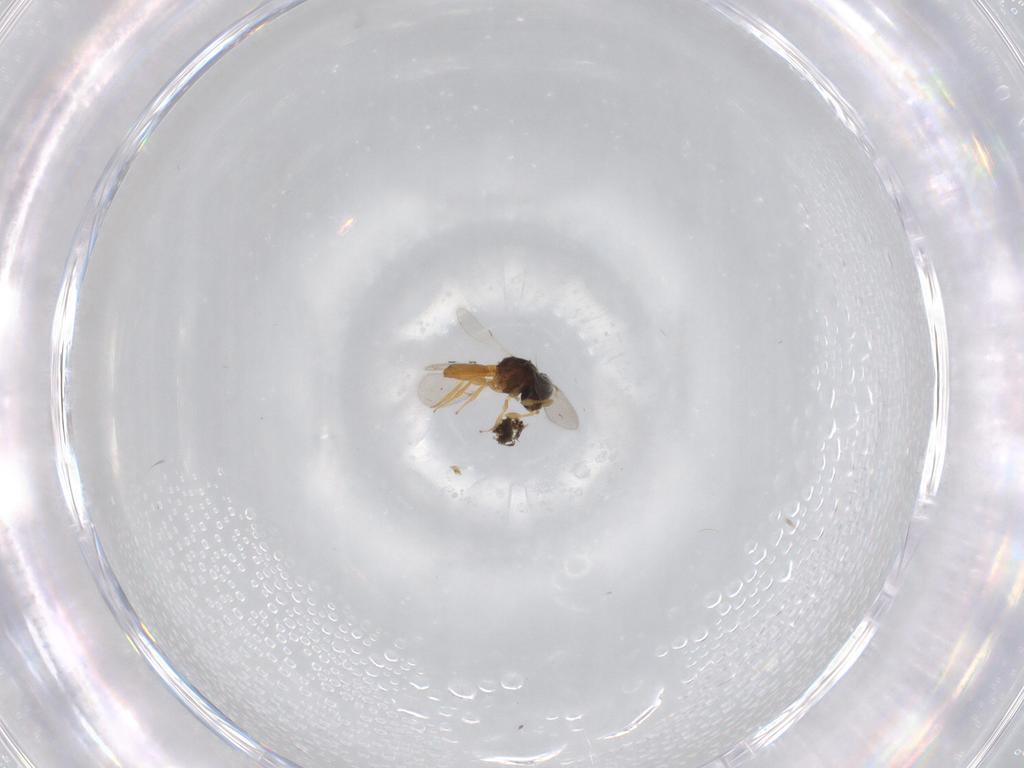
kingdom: Animalia
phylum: Arthropoda
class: Insecta
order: Hymenoptera
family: Scelionidae
